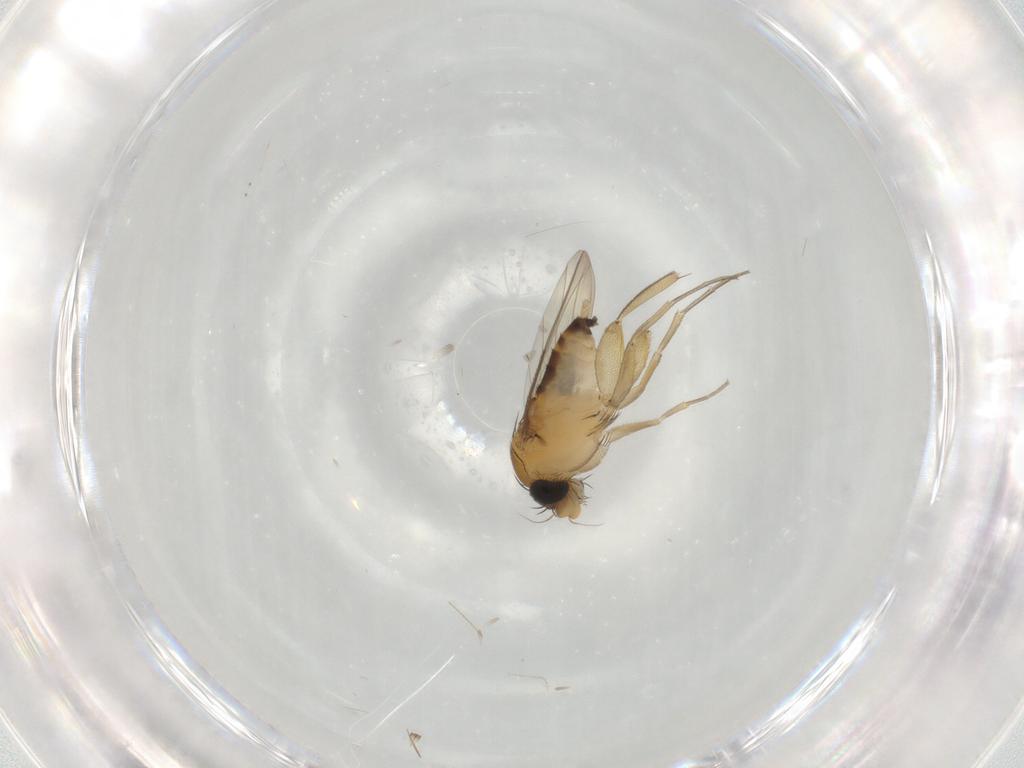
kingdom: Animalia
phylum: Arthropoda
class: Insecta
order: Diptera
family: Phoridae
